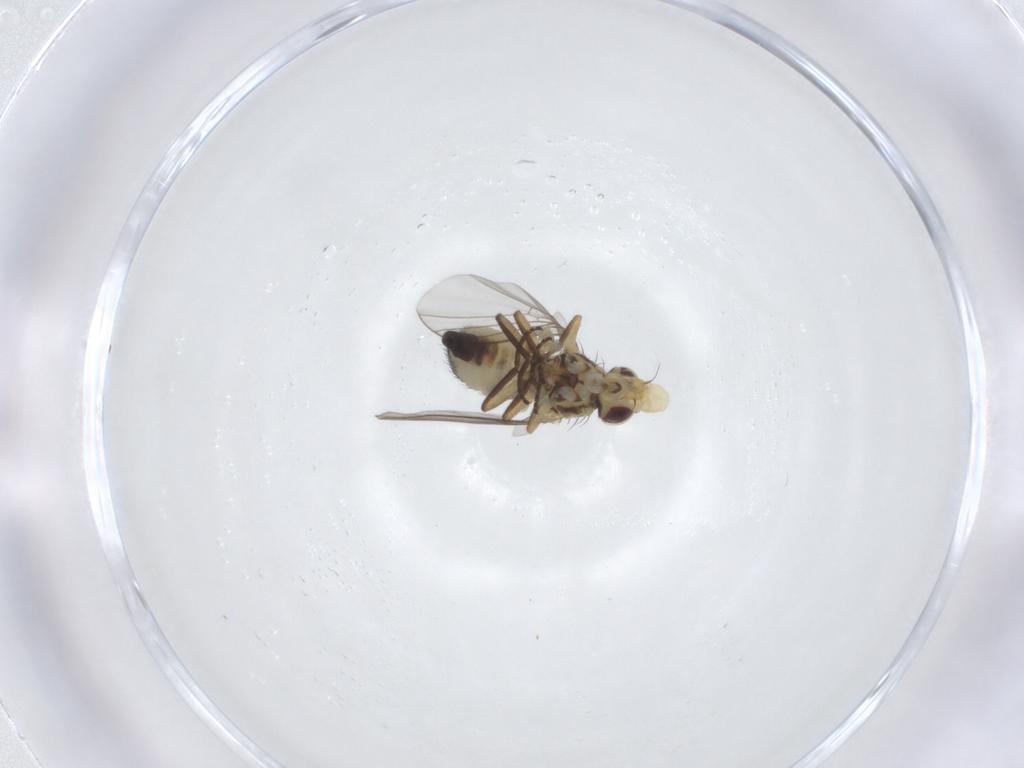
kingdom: Animalia
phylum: Arthropoda
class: Insecta
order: Diptera
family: Agromyzidae
